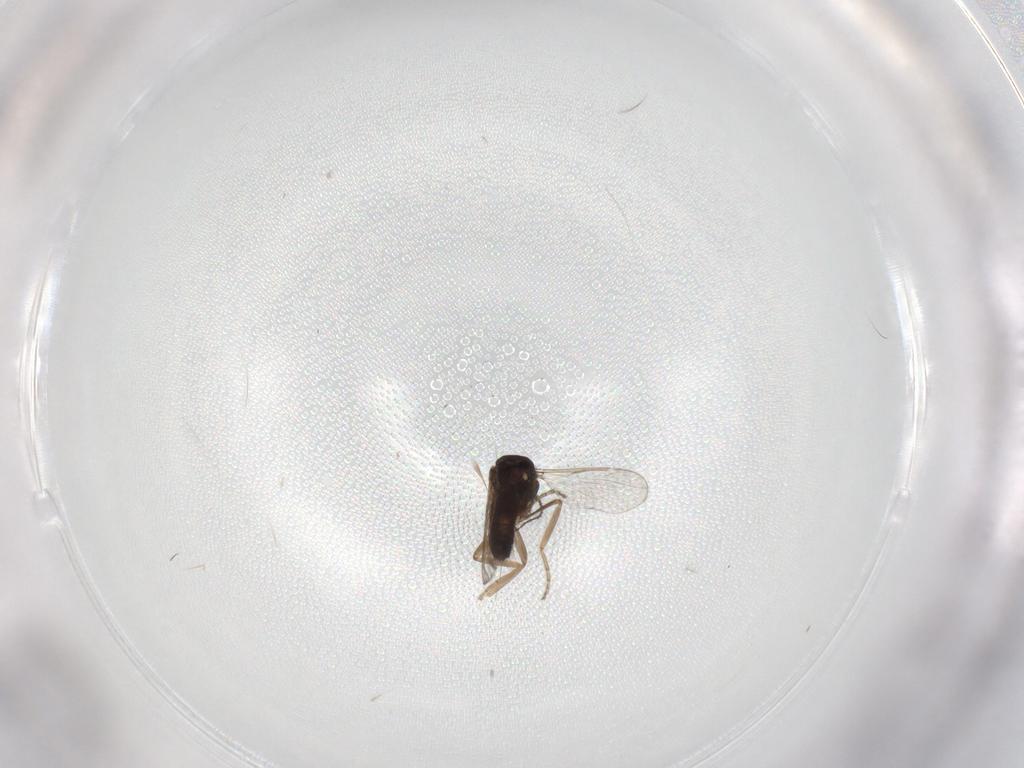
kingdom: Animalia
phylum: Arthropoda
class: Insecta
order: Diptera
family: Ceratopogonidae
